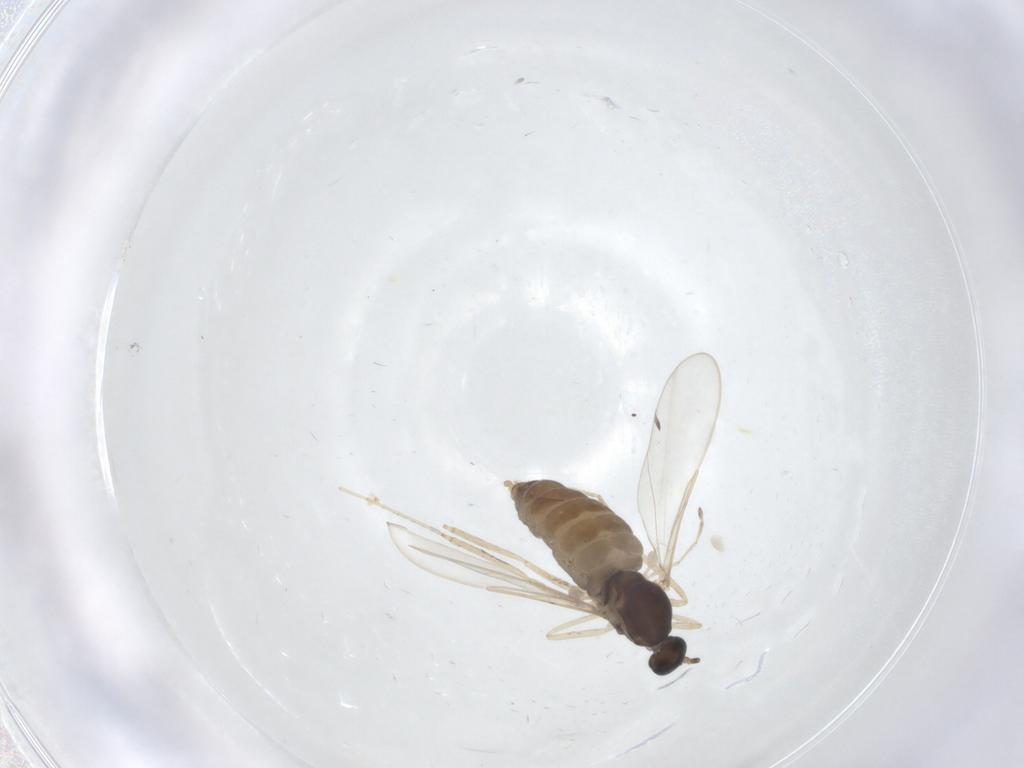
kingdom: Animalia
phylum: Arthropoda
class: Insecta
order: Diptera
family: Cecidomyiidae
